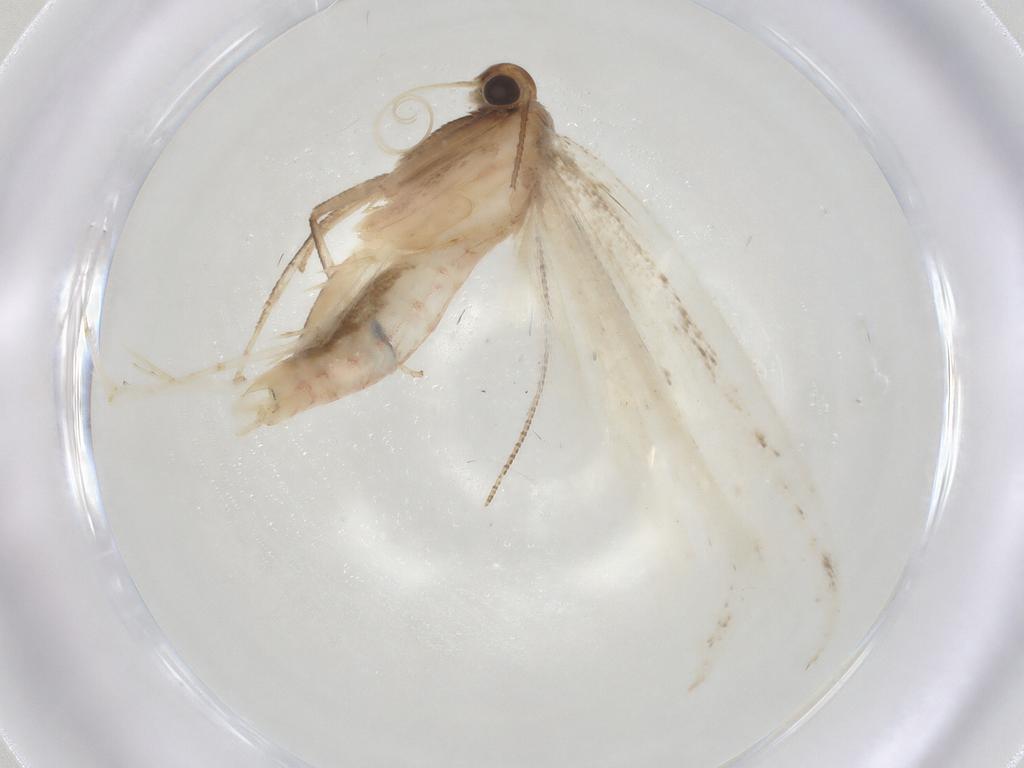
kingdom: Animalia
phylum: Arthropoda
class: Insecta
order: Lepidoptera
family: Gelechiidae
